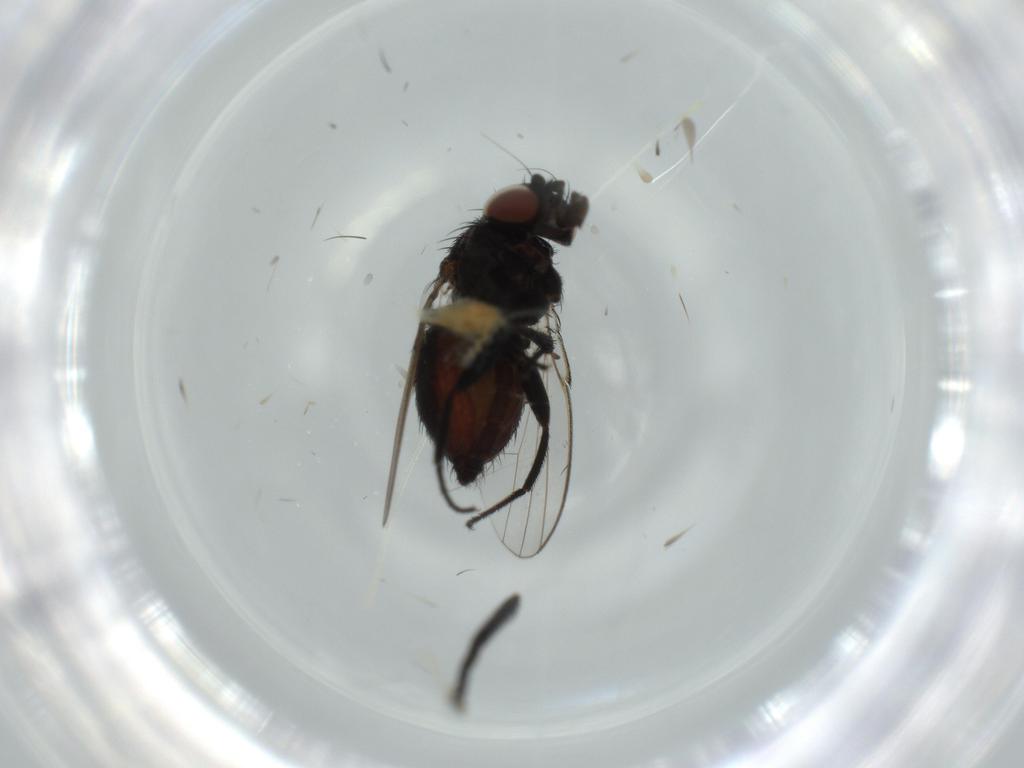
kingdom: Animalia
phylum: Arthropoda
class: Insecta
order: Diptera
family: Milichiidae
